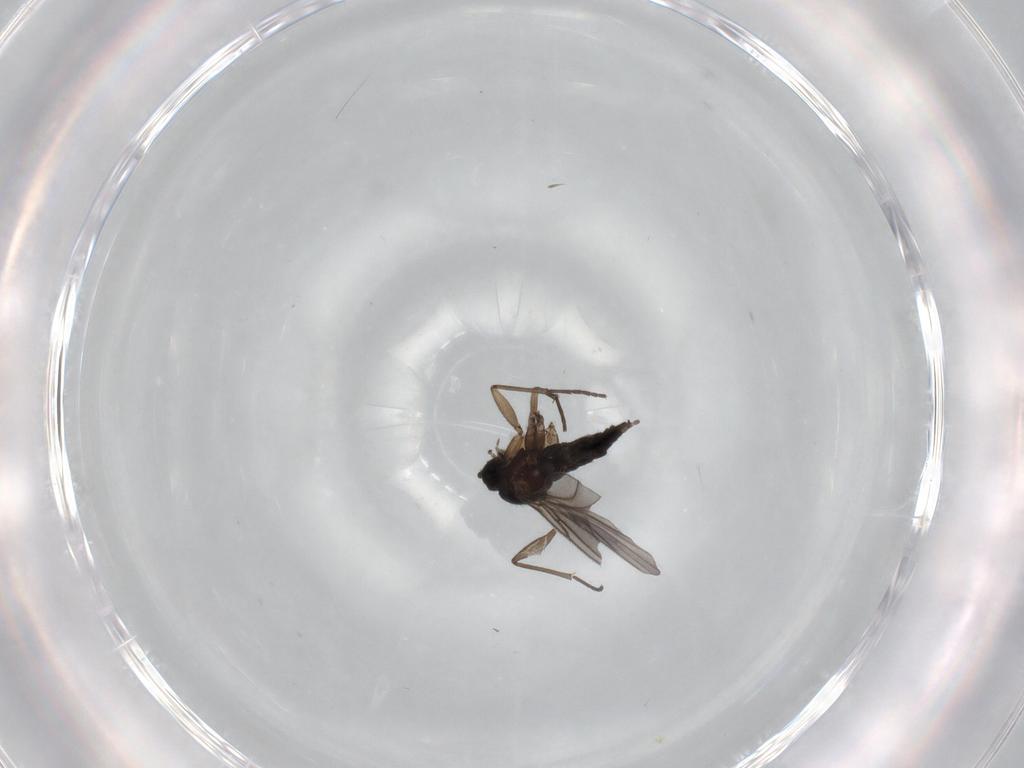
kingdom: Animalia
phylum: Arthropoda
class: Insecta
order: Diptera
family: Sciaridae
